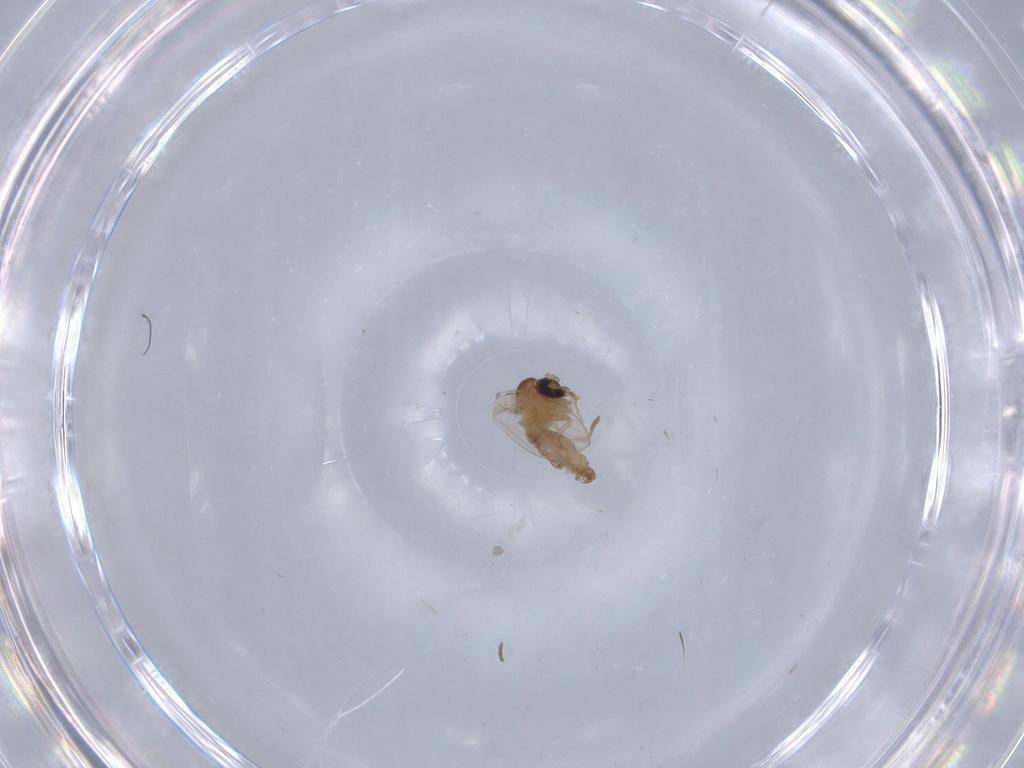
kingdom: Animalia
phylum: Arthropoda
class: Insecta
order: Diptera
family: Psychodidae
